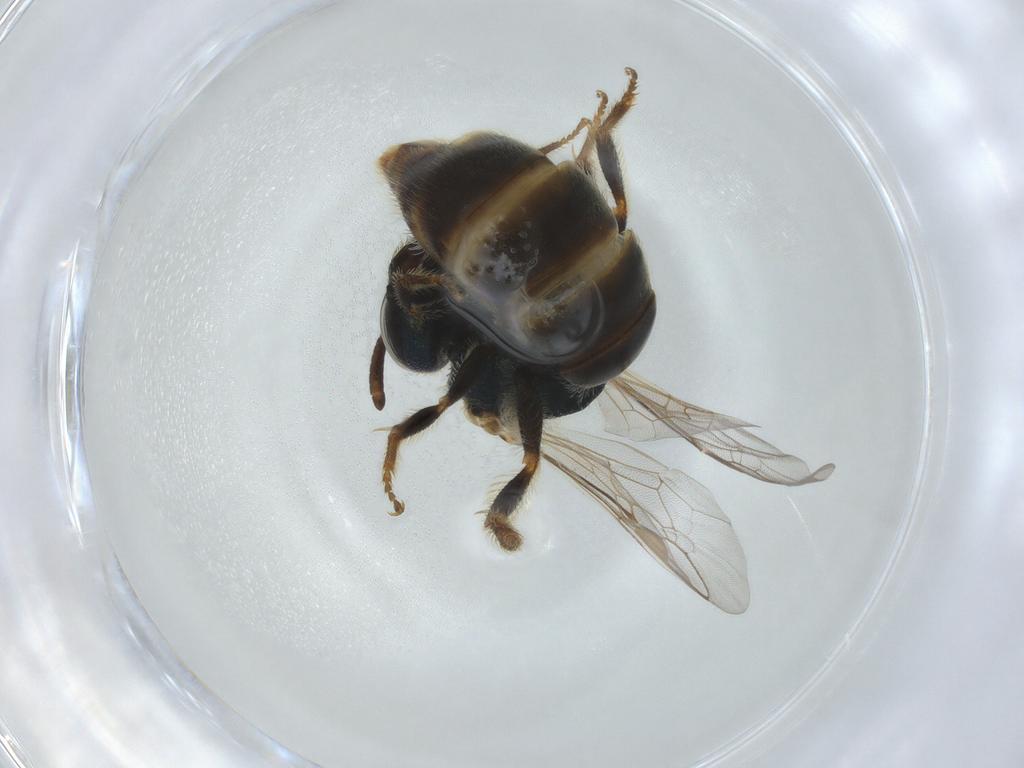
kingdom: Animalia
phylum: Arthropoda
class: Insecta
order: Hymenoptera
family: Halictidae
